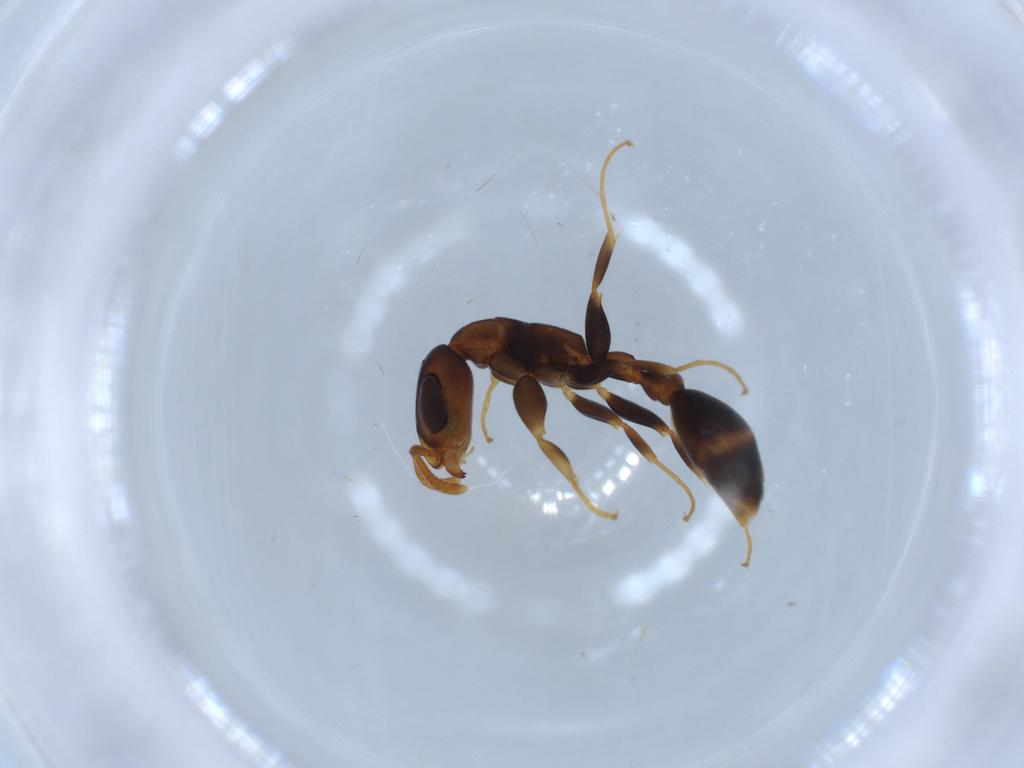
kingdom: Animalia
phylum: Arthropoda
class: Insecta
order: Hymenoptera
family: Formicidae
